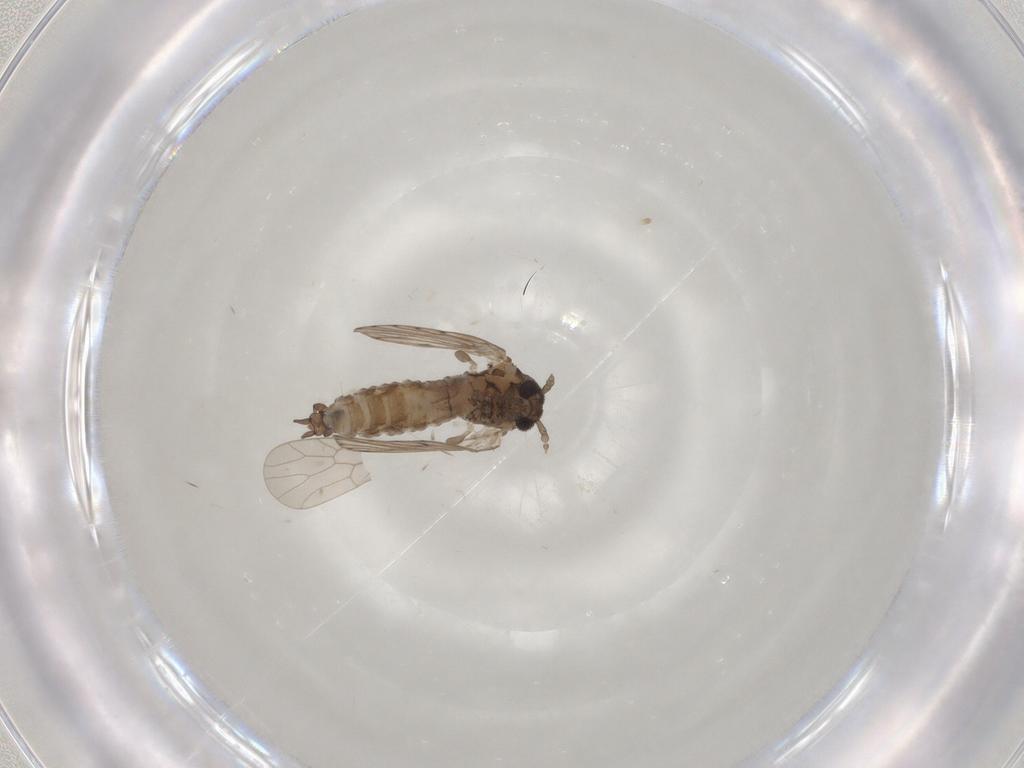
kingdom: Animalia
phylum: Arthropoda
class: Insecta
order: Diptera
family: Psychodidae
